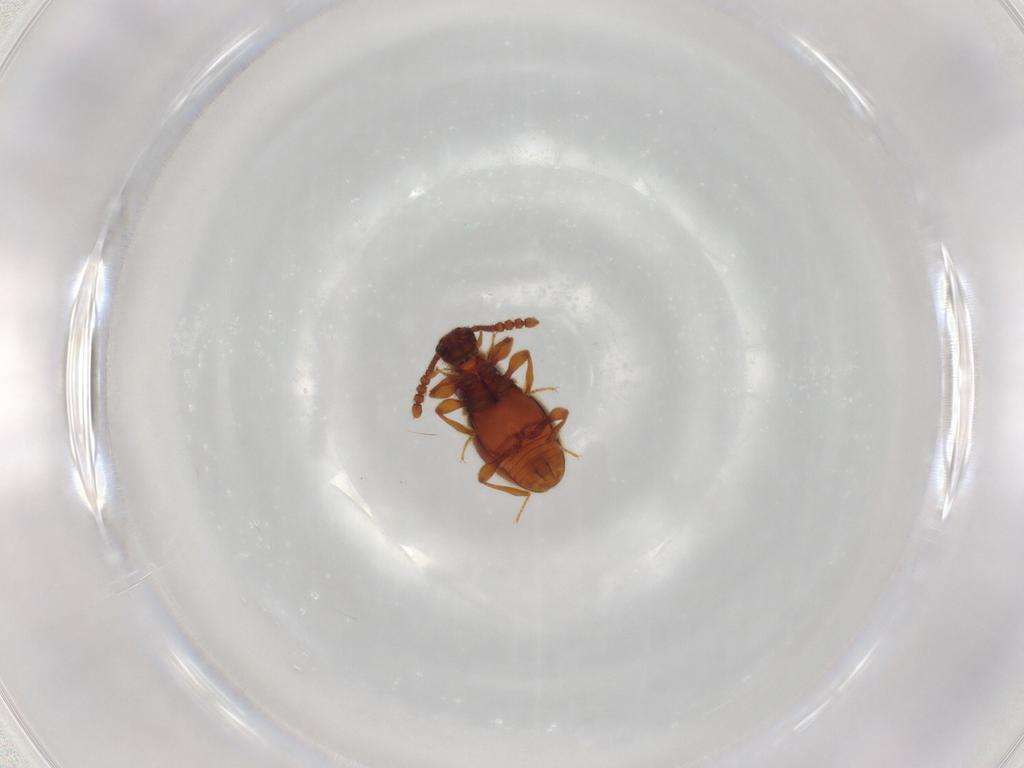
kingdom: Animalia
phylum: Arthropoda
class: Insecta
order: Coleoptera
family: Staphylinidae
